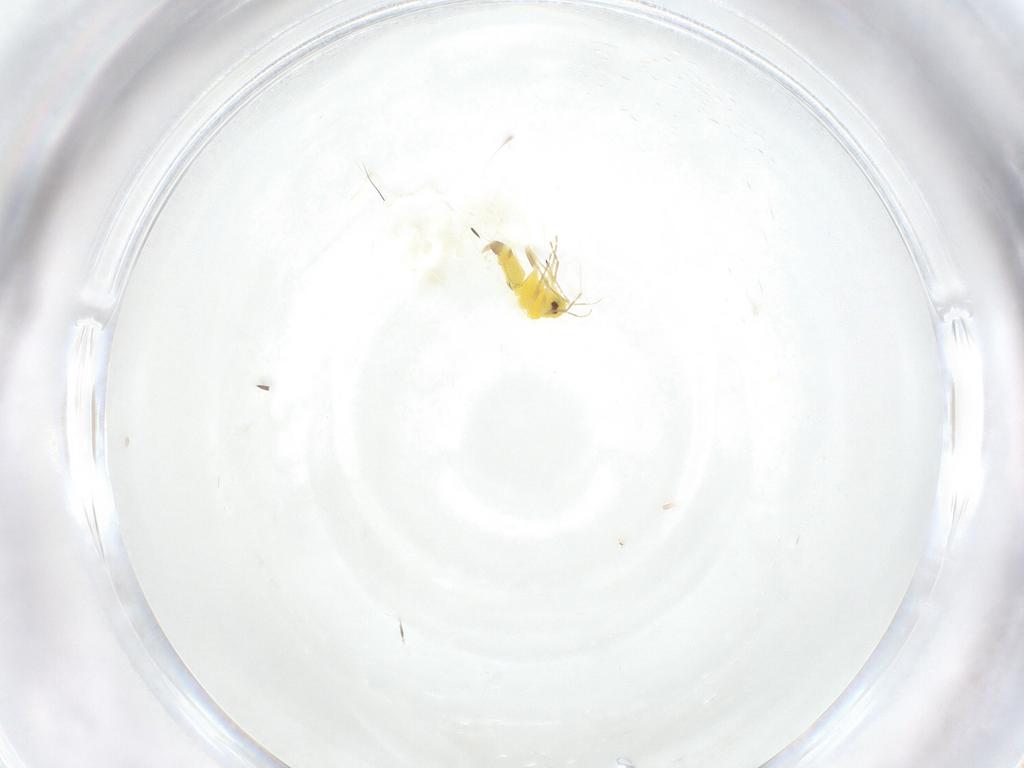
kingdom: Animalia
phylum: Arthropoda
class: Insecta
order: Hemiptera
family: Aleyrodidae
